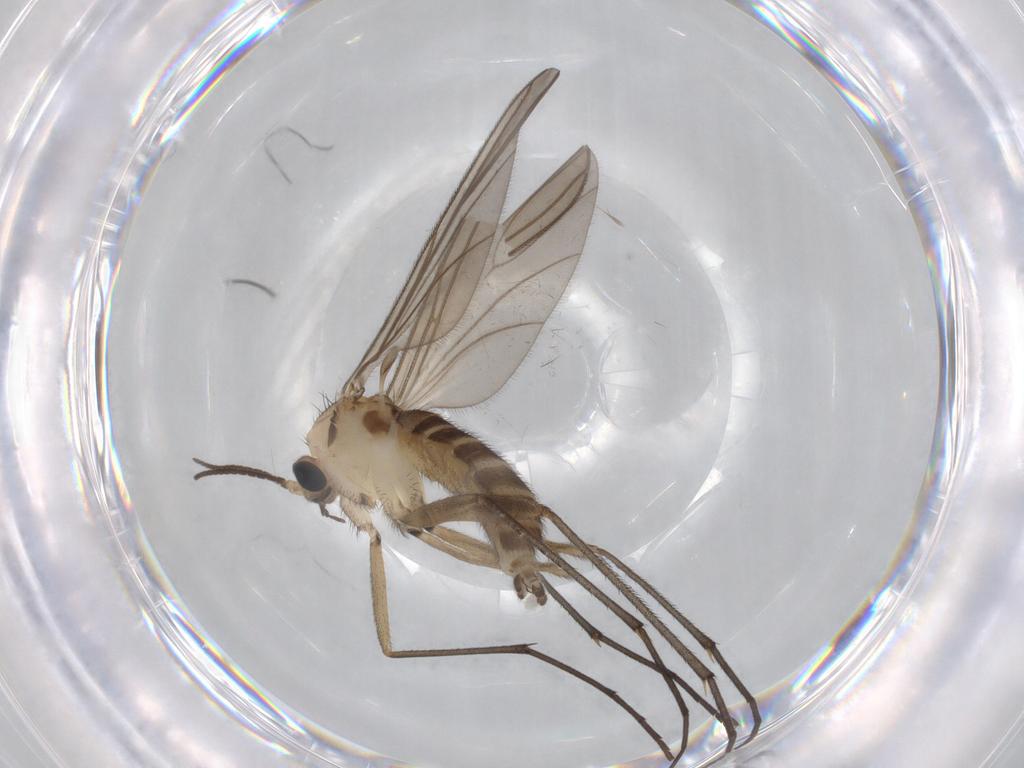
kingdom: Animalia
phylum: Arthropoda
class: Insecta
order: Diptera
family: Sciaridae
